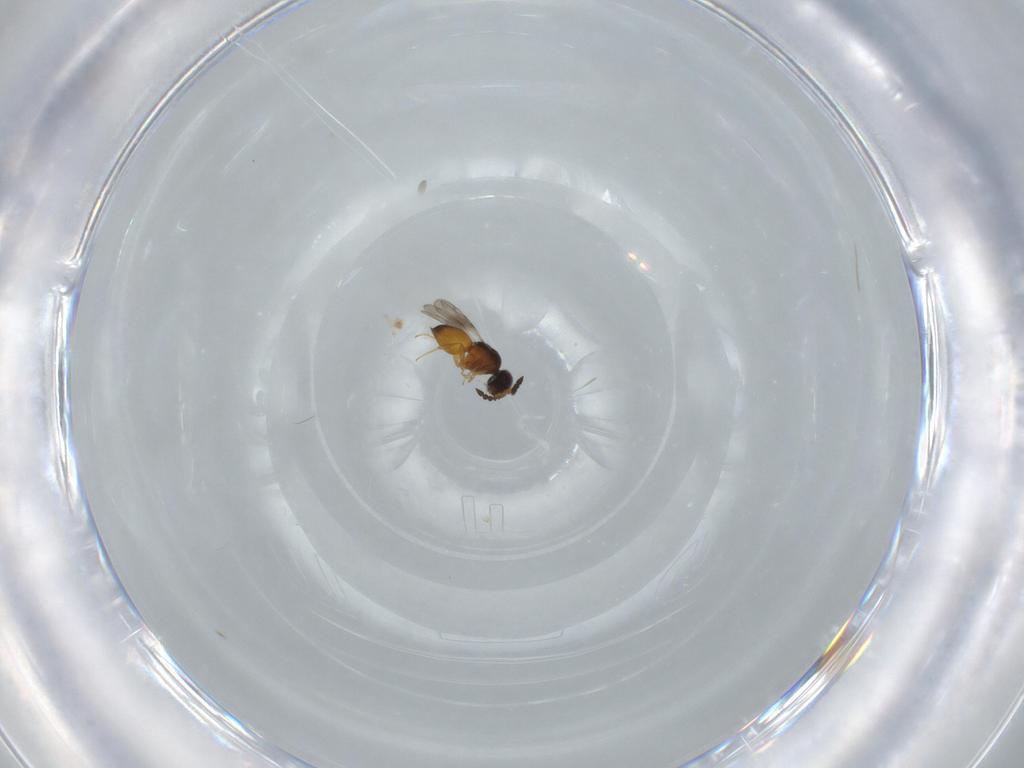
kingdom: Animalia
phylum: Arthropoda
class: Insecta
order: Hymenoptera
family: Ceraphronidae
